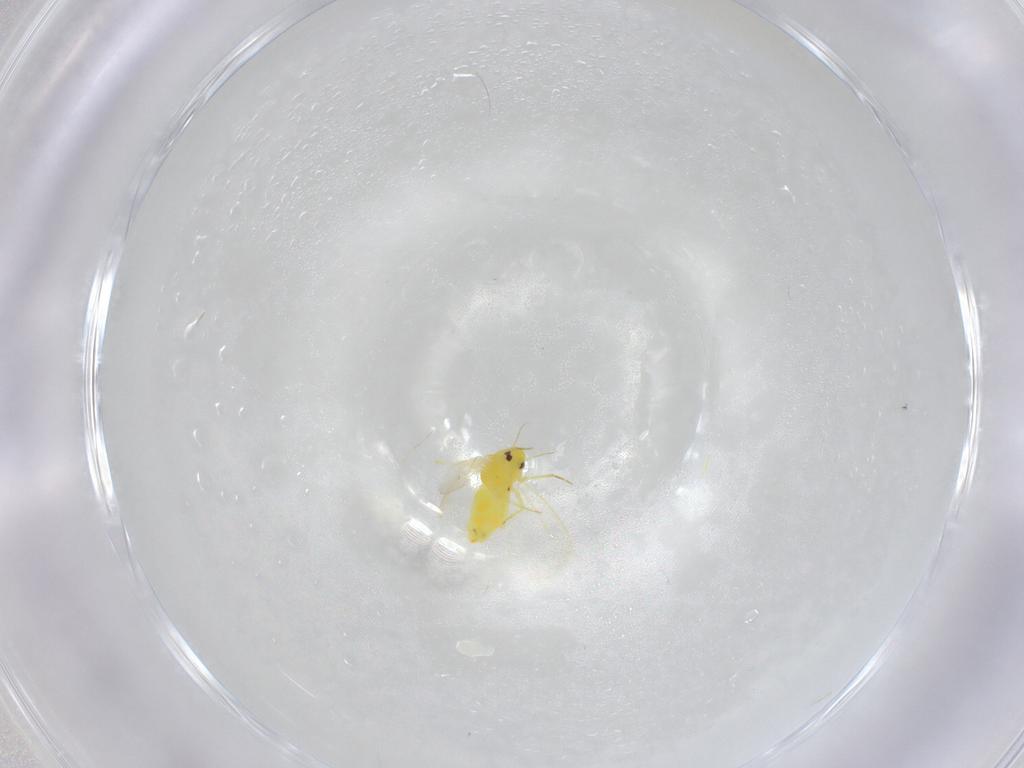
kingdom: Animalia
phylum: Arthropoda
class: Insecta
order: Hemiptera
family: Aleyrodidae
